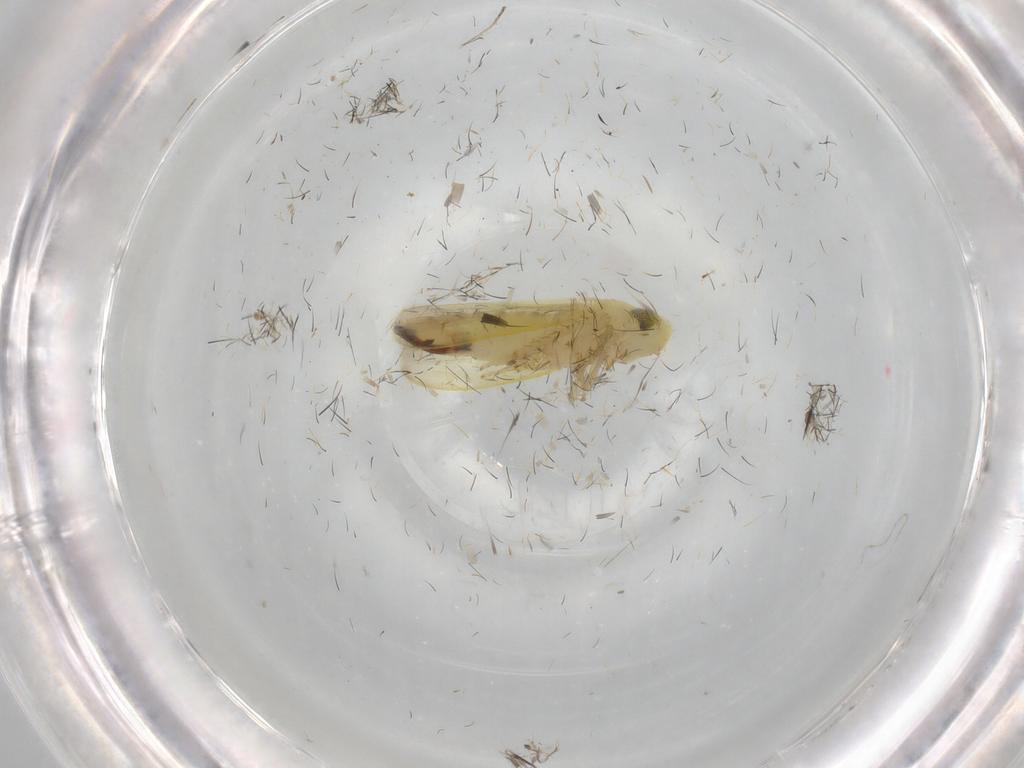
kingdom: Animalia
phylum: Arthropoda
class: Insecta
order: Hemiptera
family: Cicadellidae
